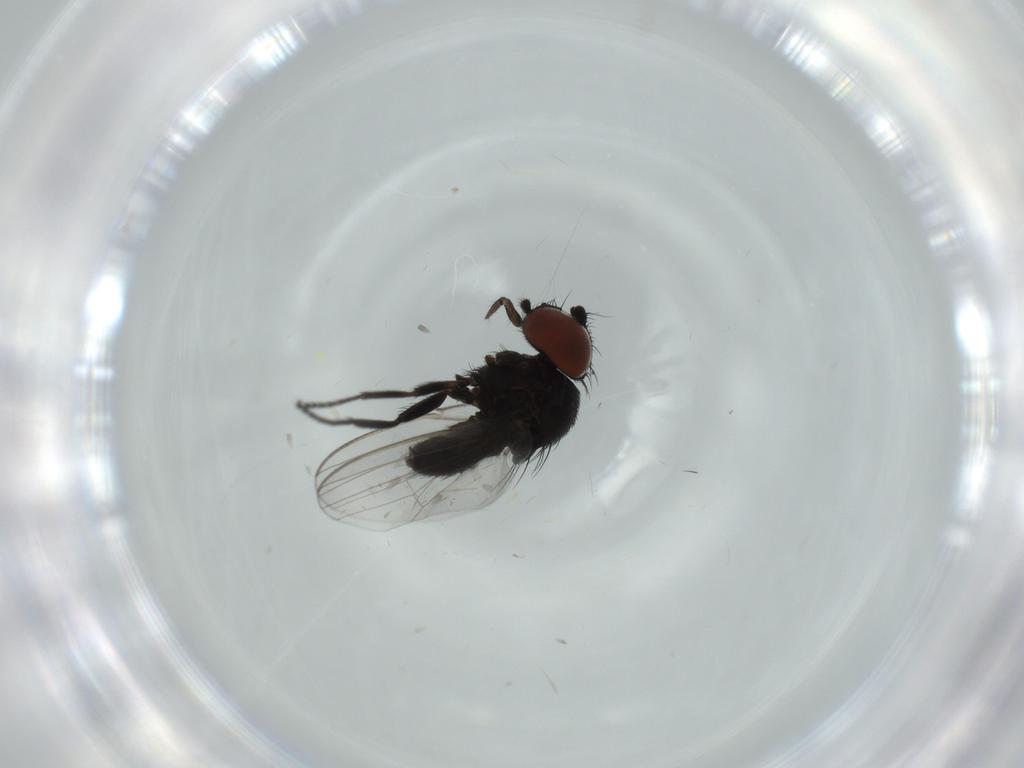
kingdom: Animalia
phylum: Arthropoda
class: Insecta
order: Diptera
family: Milichiidae
